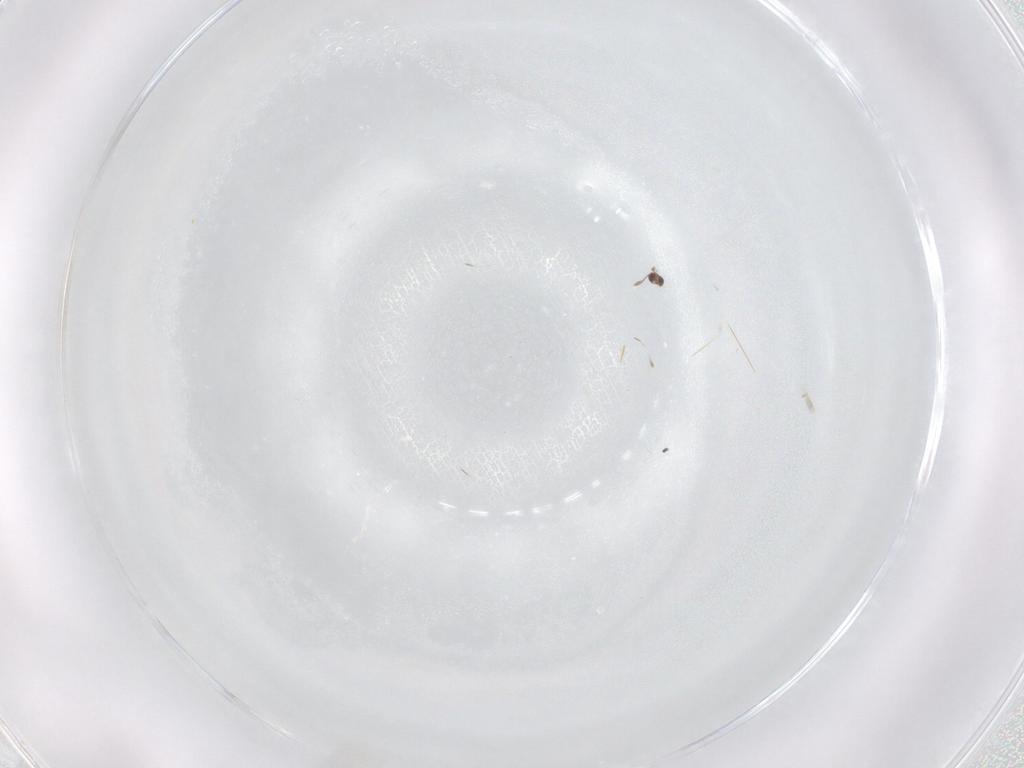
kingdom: Animalia
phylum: Arthropoda
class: Insecta
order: Hymenoptera
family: Mymaridae
